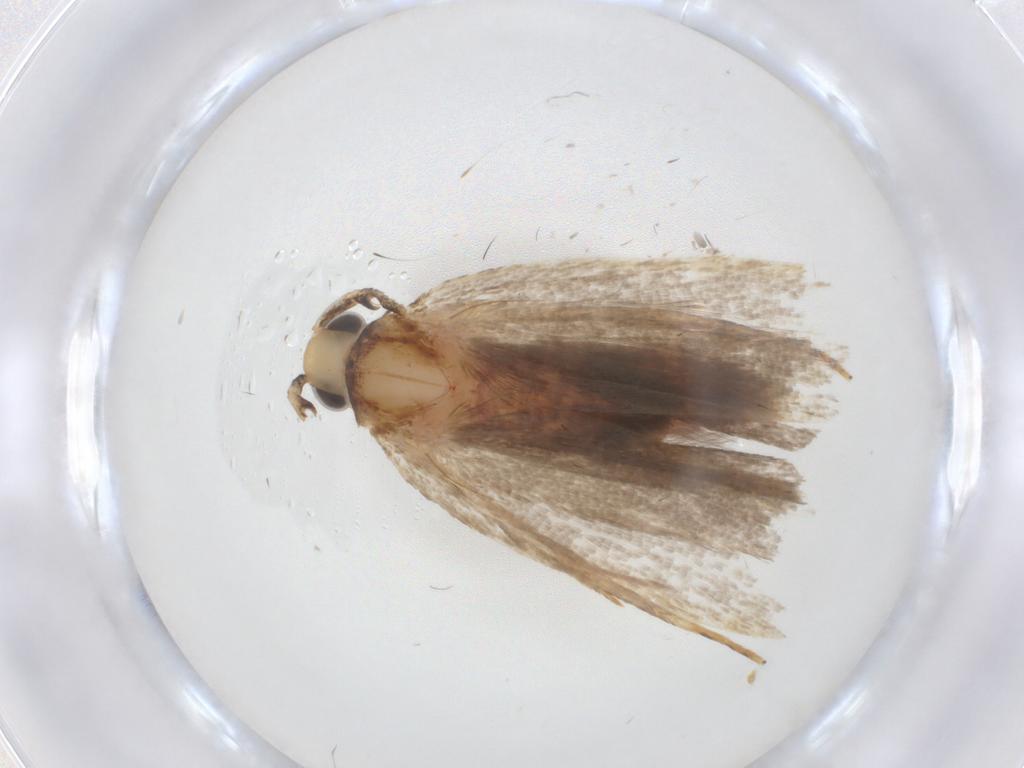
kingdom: Animalia
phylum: Arthropoda
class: Insecta
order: Lepidoptera
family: Autostichidae
